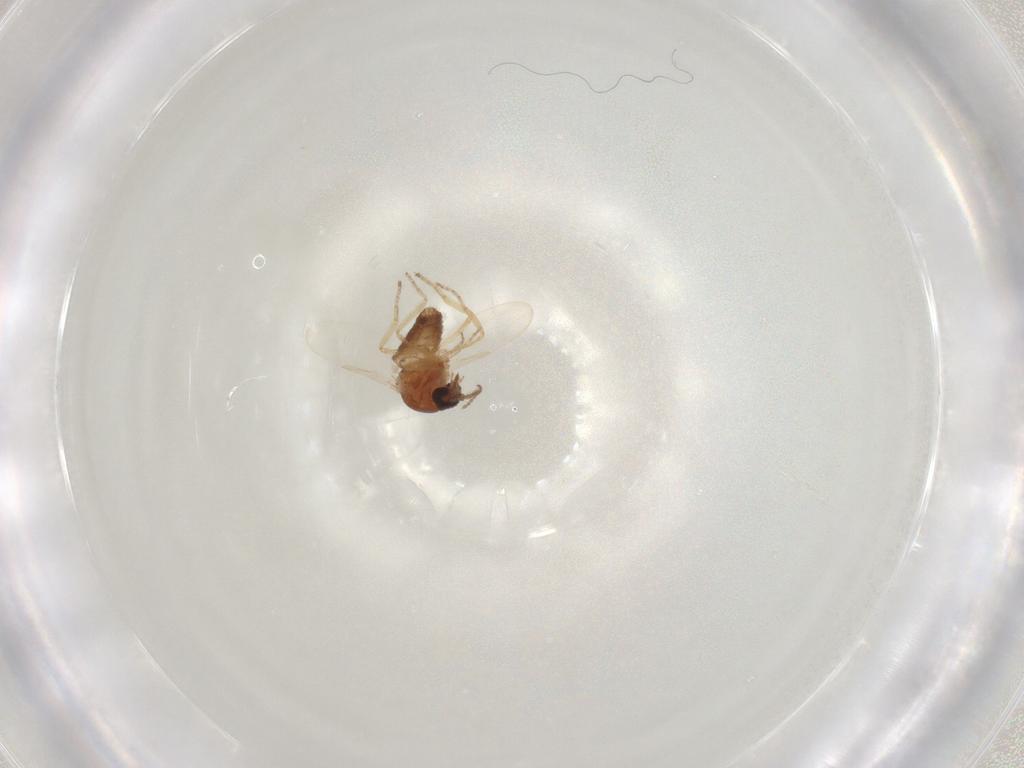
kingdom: Animalia
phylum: Arthropoda
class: Insecta
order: Diptera
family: Ceratopogonidae
